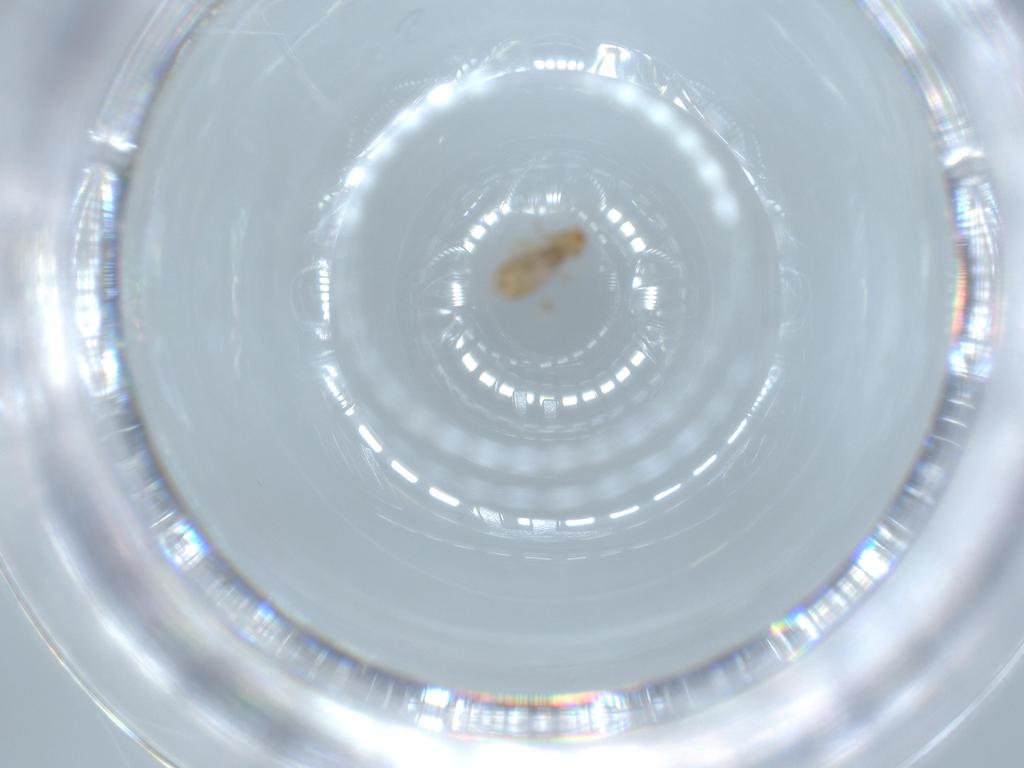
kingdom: Animalia
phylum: Arthropoda
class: Insecta
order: Psocodea
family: Liposcelididae
